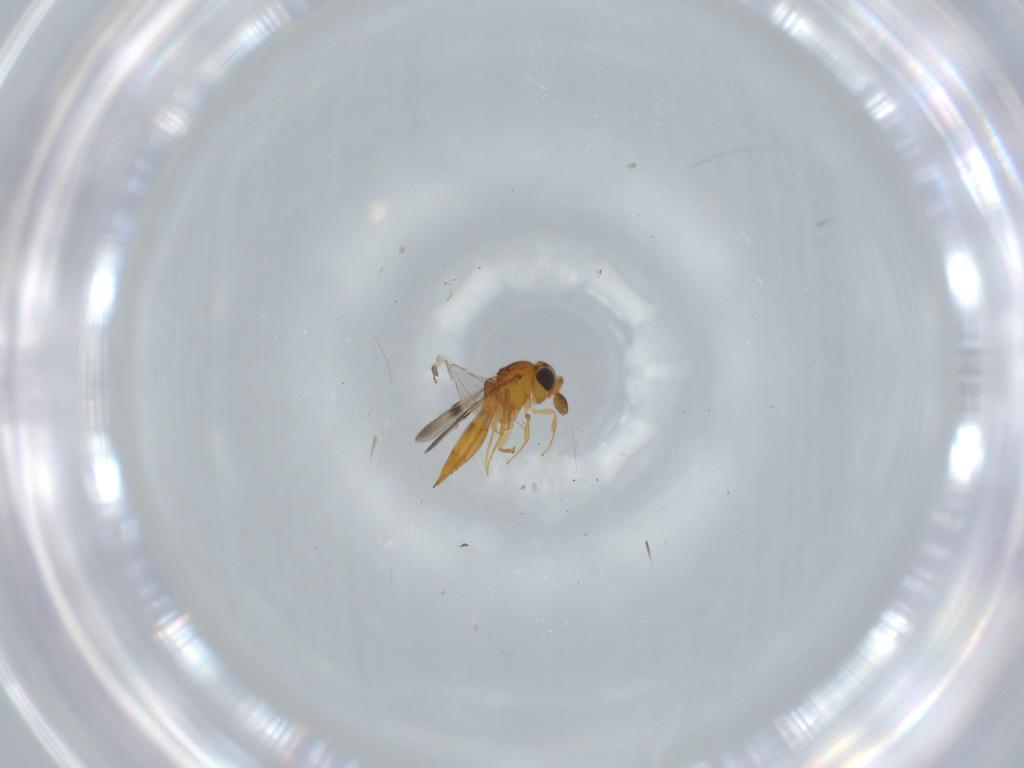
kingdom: Animalia
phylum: Arthropoda
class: Insecta
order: Hymenoptera
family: Scelionidae
